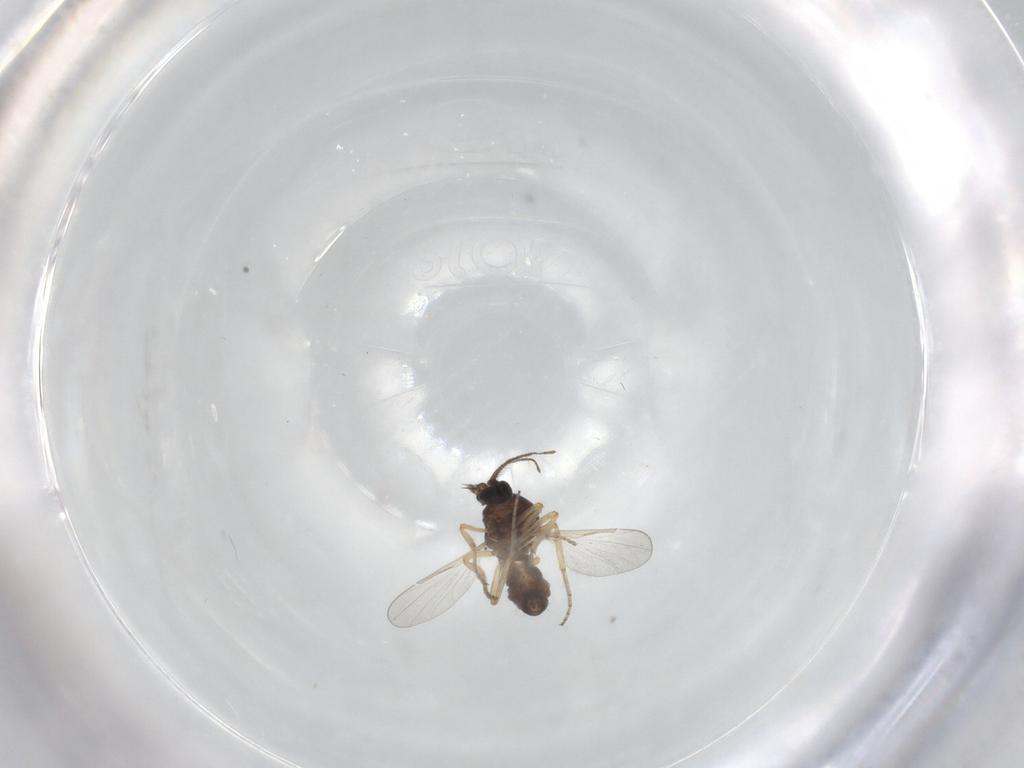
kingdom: Animalia
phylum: Arthropoda
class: Insecta
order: Diptera
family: Ceratopogonidae
